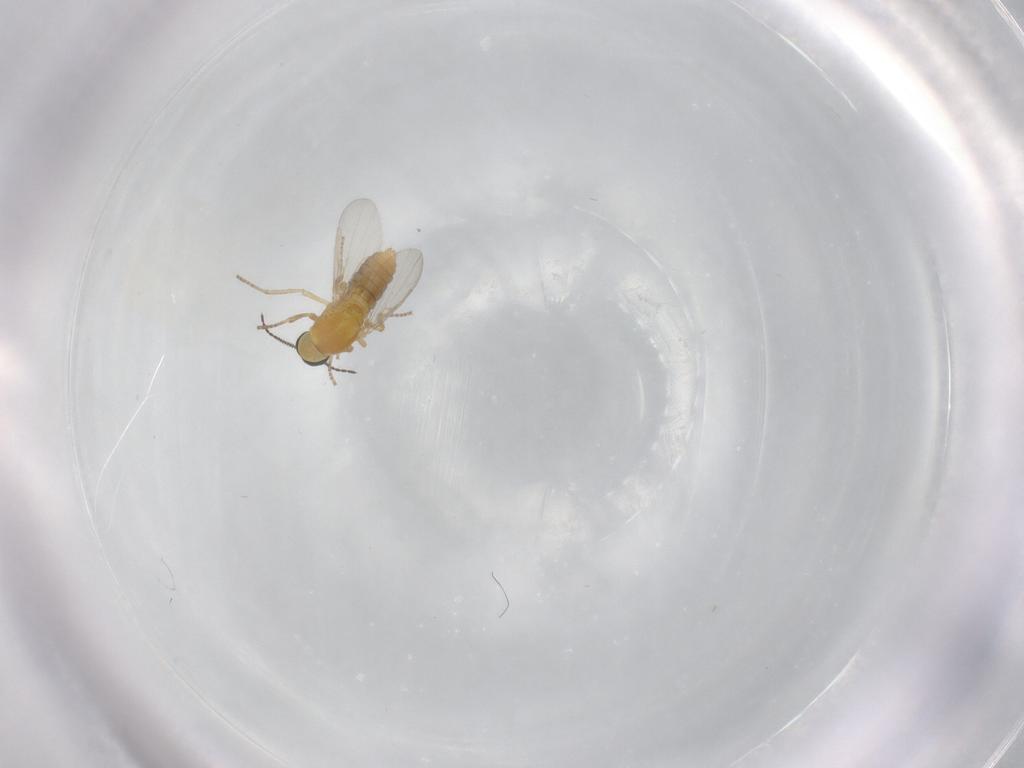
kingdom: Animalia
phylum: Arthropoda
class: Insecta
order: Diptera
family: Ceratopogonidae
